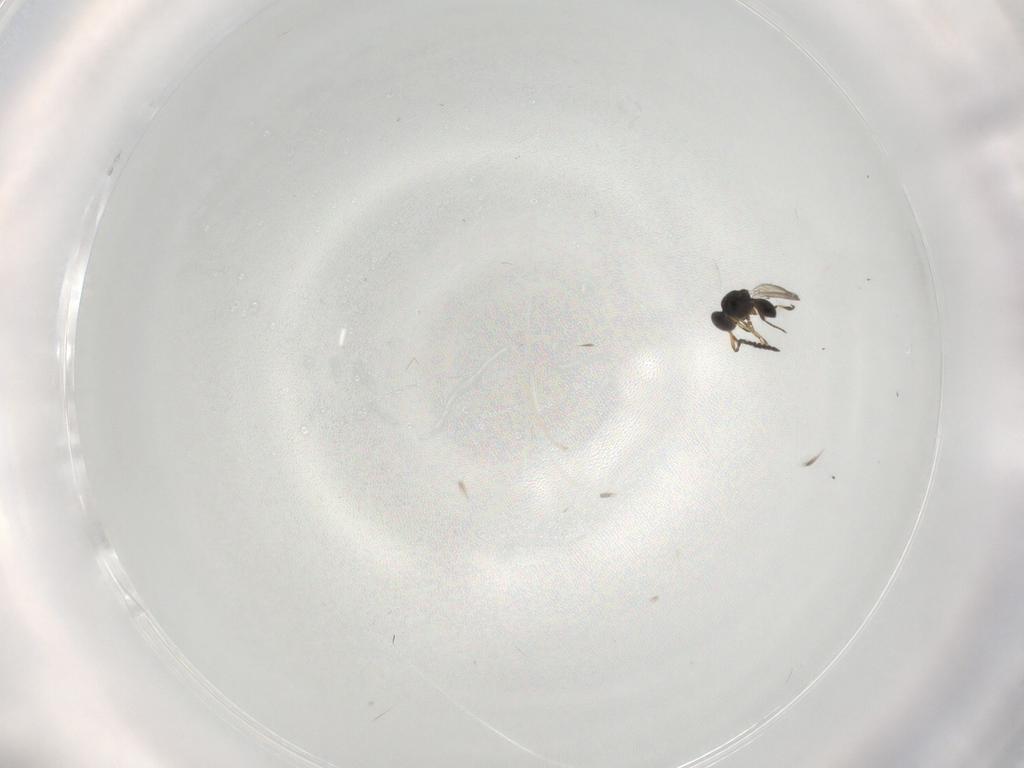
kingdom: Animalia
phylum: Arthropoda
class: Insecta
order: Hymenoptera
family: Platygastridae
